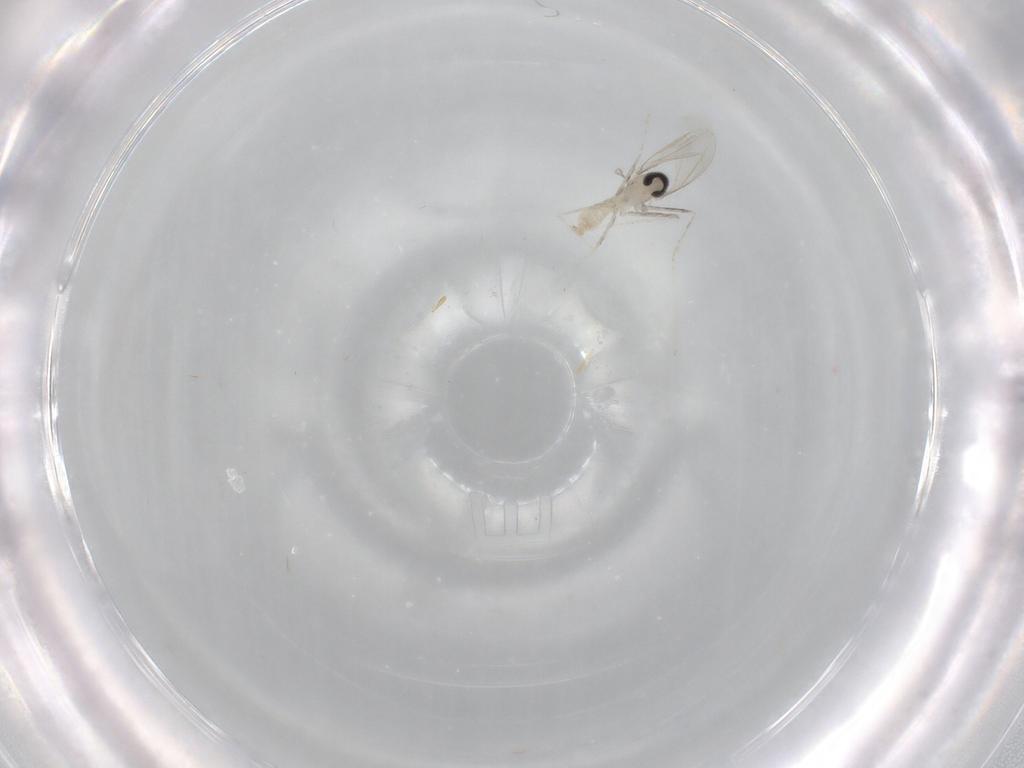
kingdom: Animalia
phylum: Arthropoda
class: Insecta
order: Diptera
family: Cecidomyiidae
